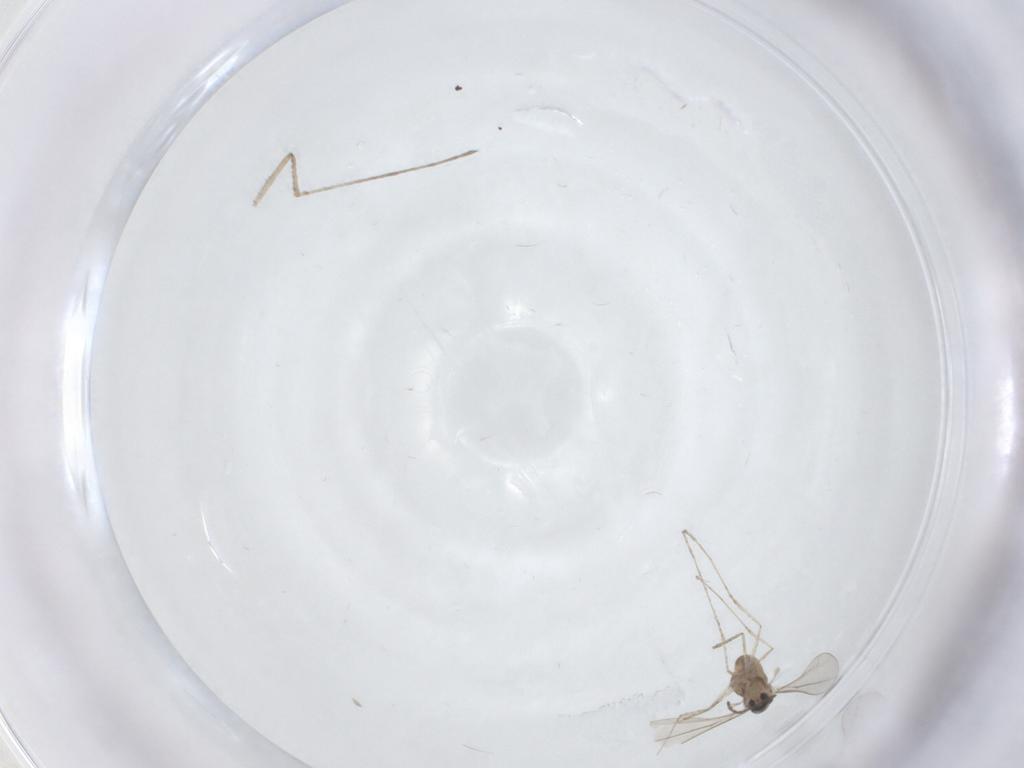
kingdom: Animalia
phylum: Arthropoda
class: Insecta
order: Diptera
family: Cecidomyiidae
